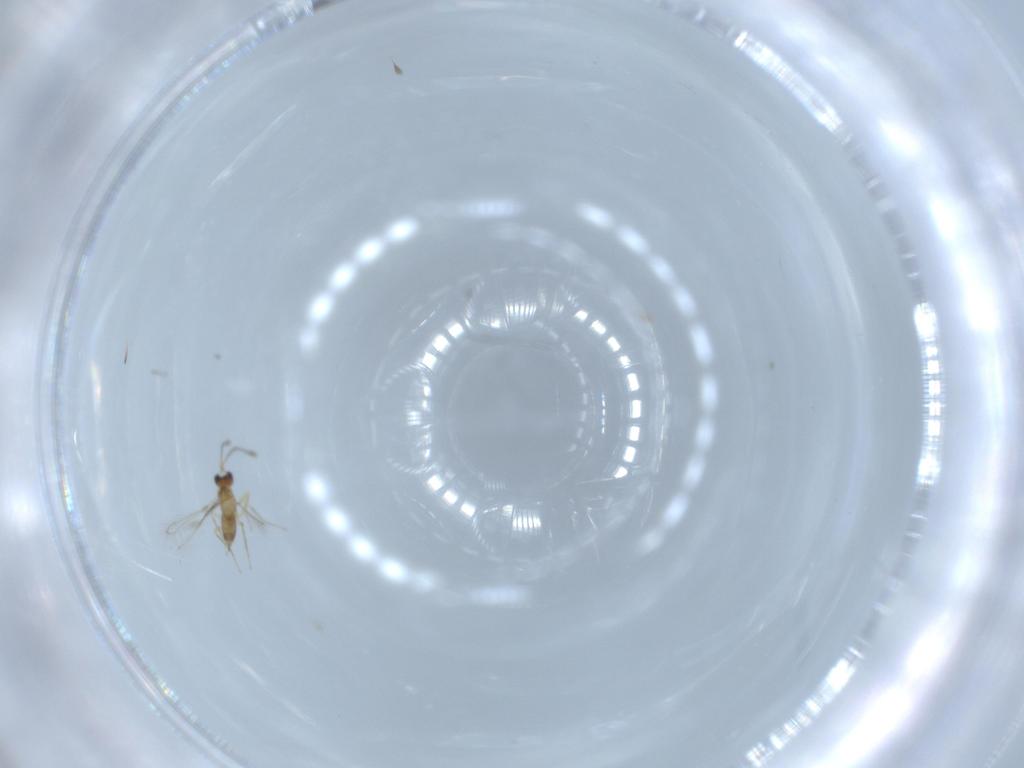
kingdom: Animalia
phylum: Arthropoda
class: Insecta
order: Hymenoptera
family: Mymaridae
